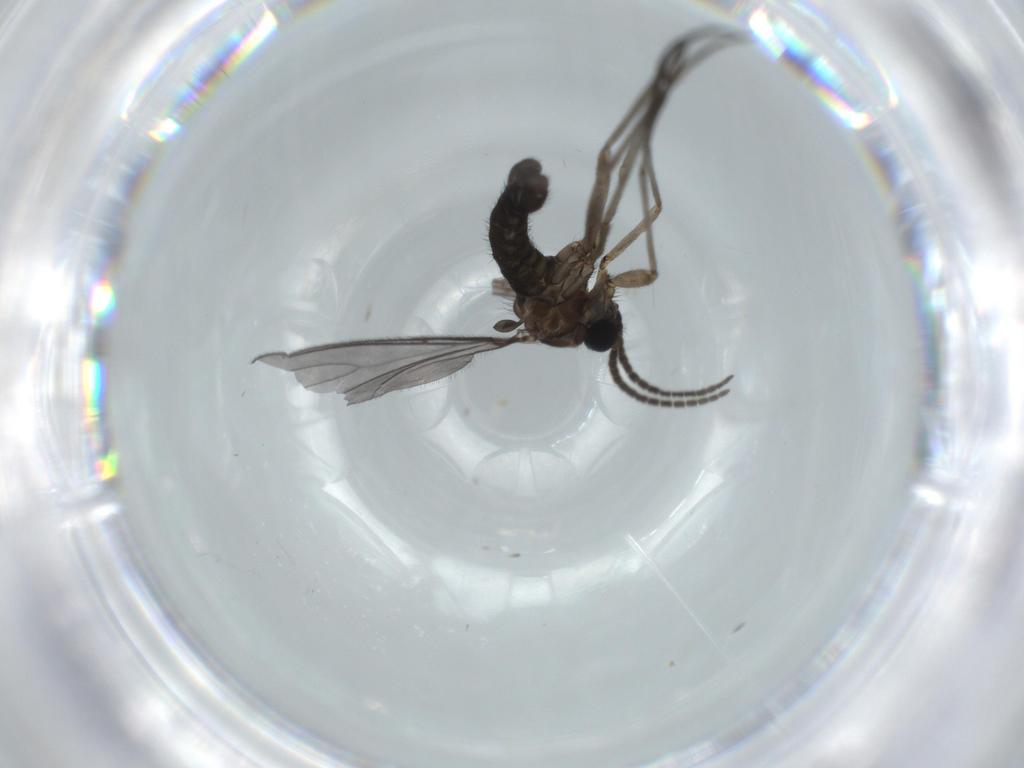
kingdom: Animalia
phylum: Arthropoda
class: Insecta
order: Diptera
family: Sciaridae
